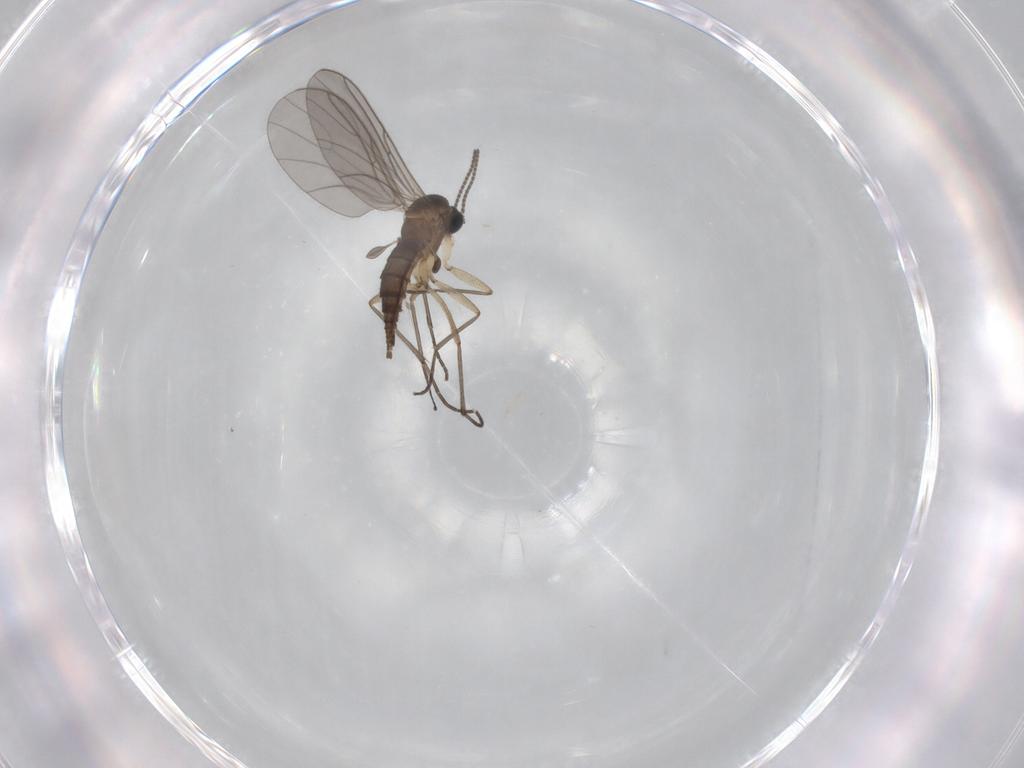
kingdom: Animalia
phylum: Arthropoda
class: Insecta
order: Diptera
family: Sciaridae
